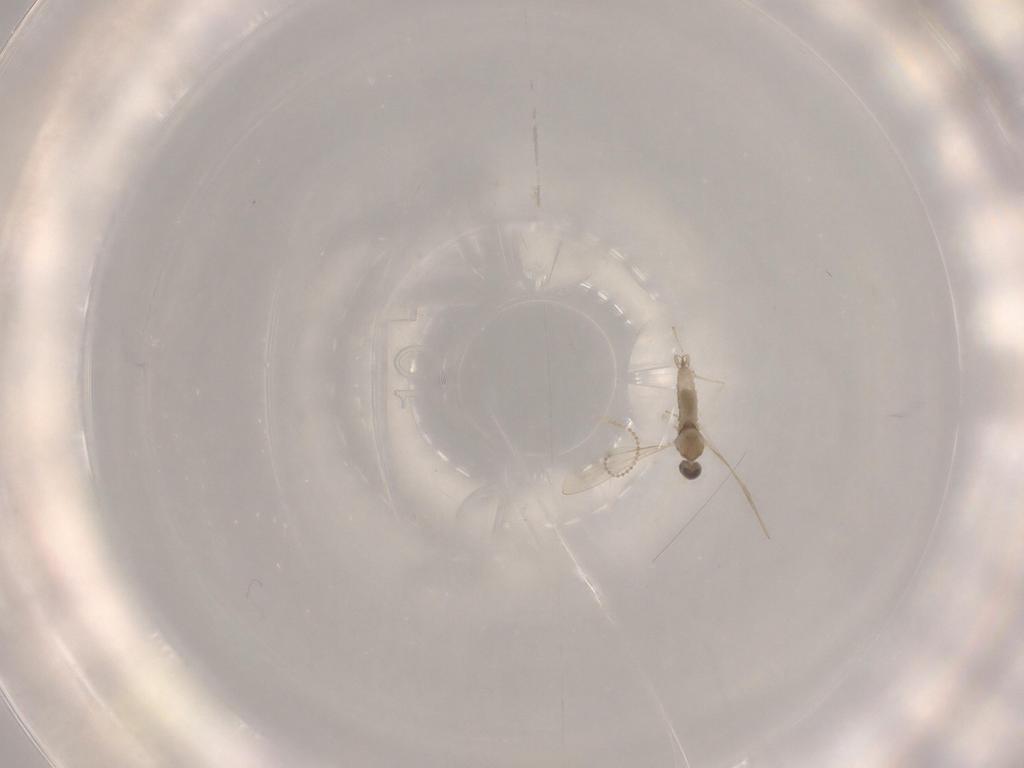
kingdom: Animalia
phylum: Arthropoda
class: Insecta
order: Diptera
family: Cecidomyiidae
